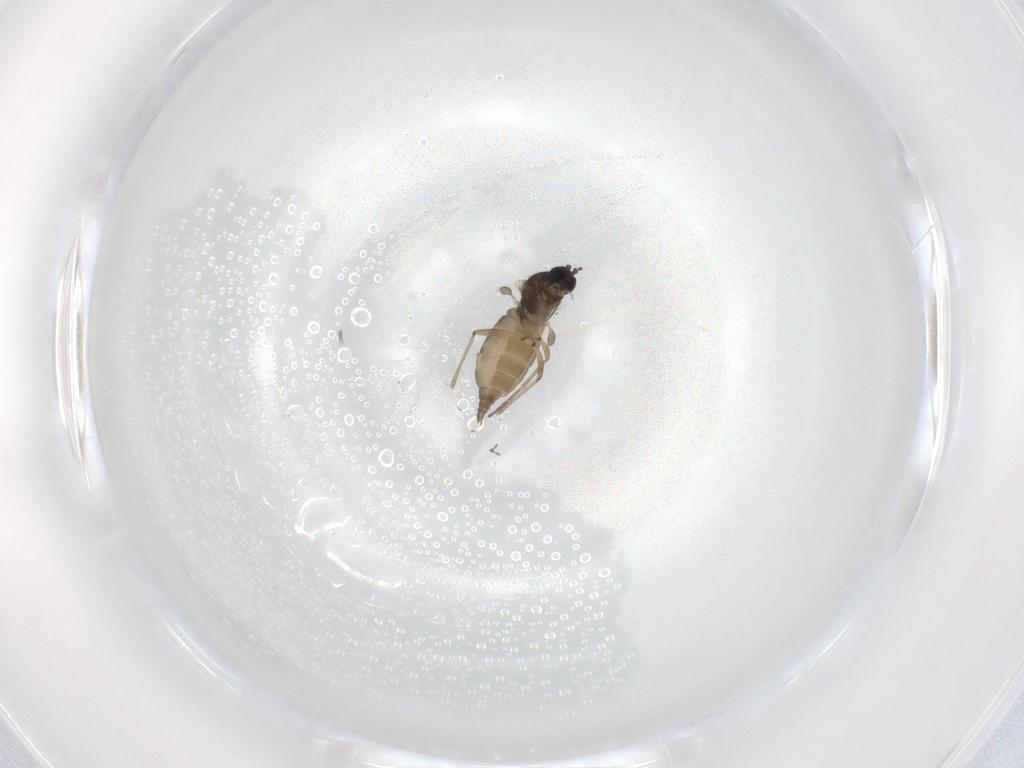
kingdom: Animalia
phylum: Arthropoda
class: Insecta
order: Diptera
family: Sciaridae
